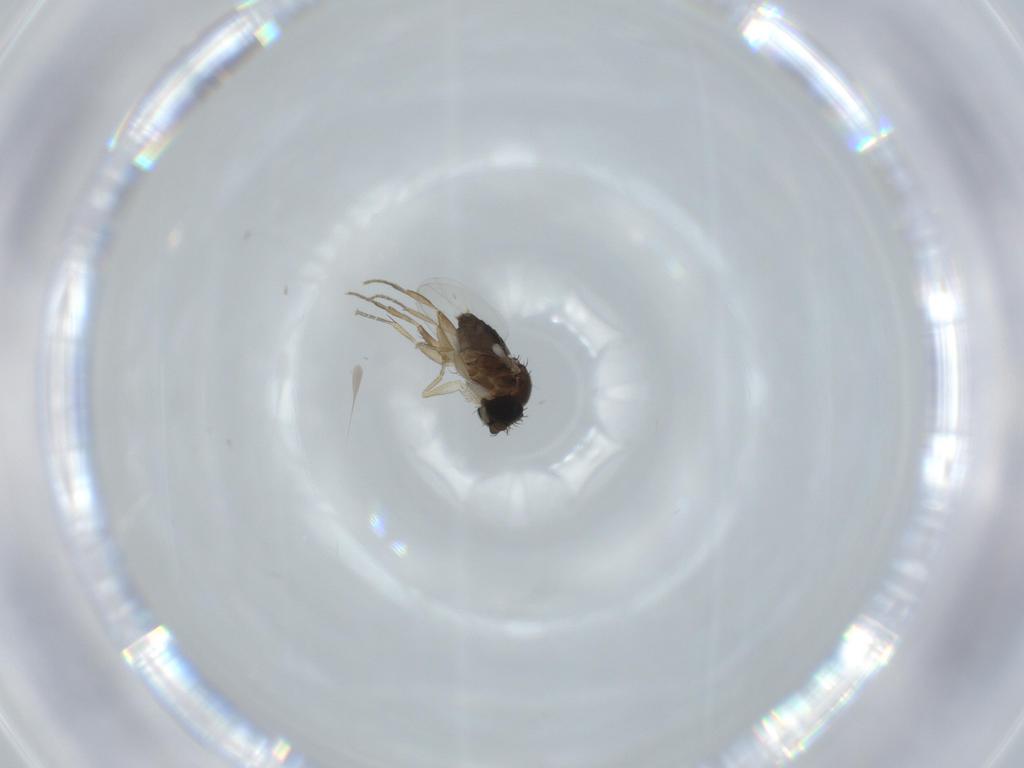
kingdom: Animalia
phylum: Arthropoda
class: Insecta
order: Diptera
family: Cecidomyiidae
